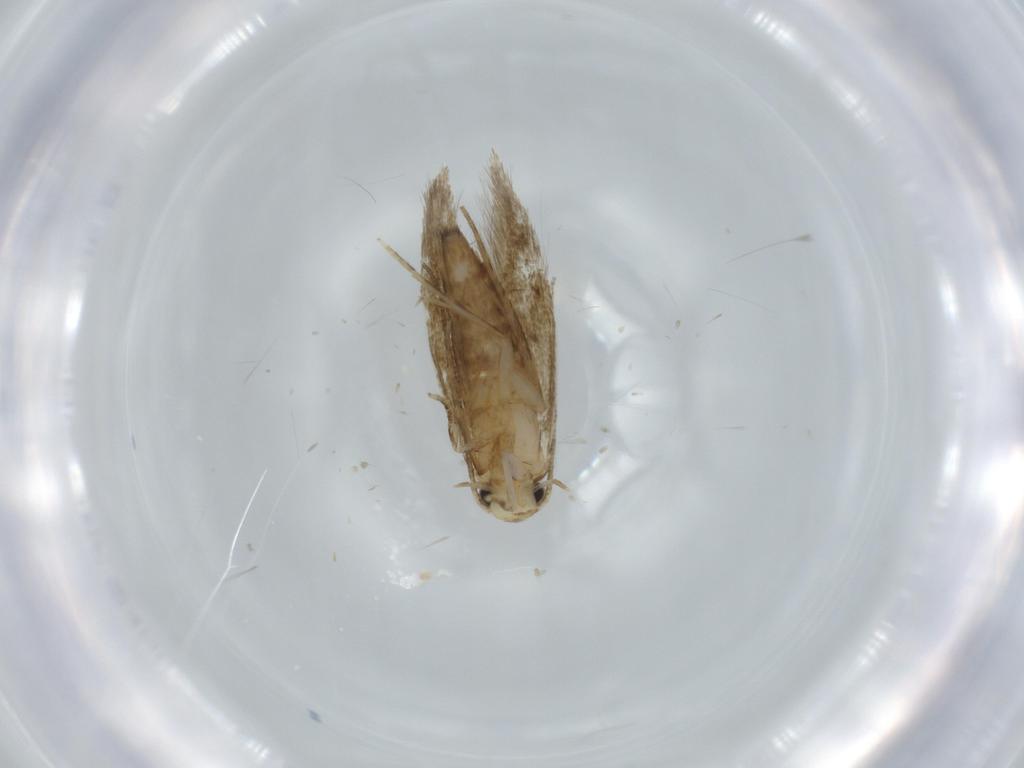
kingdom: Animalia
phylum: Arthropoda
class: Insecta
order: Lepidoptera
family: Tineidae
